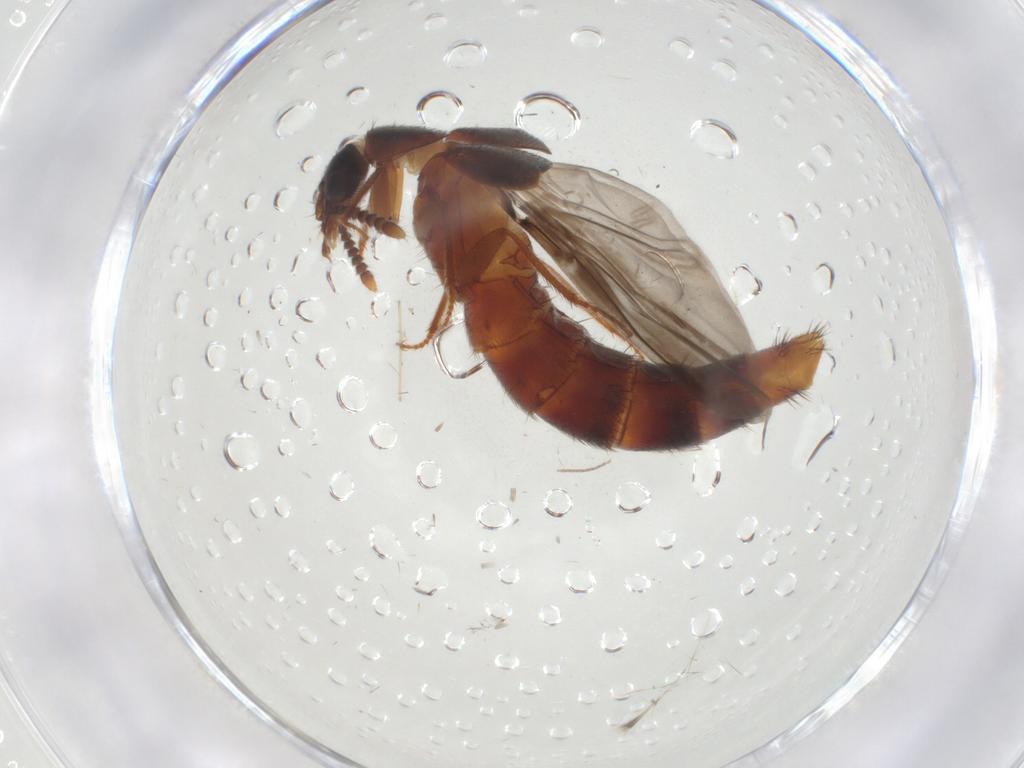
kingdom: Animalia
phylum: Arthropoda
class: Insecta
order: Coleoptera
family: Staphylinidae
